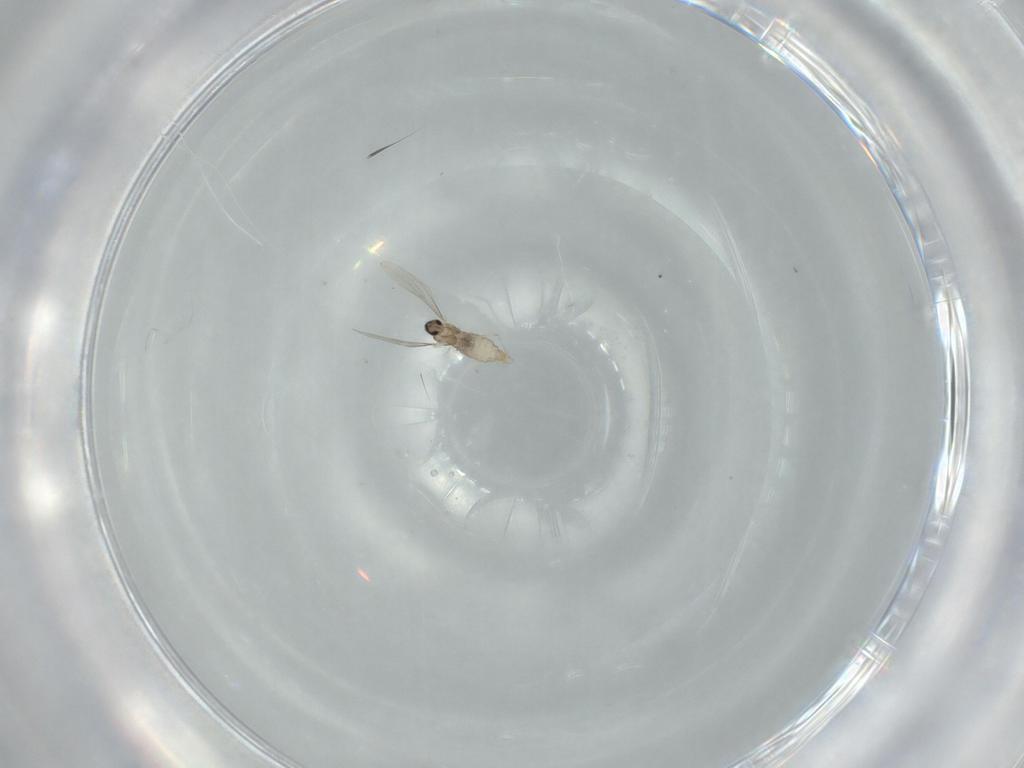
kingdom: Animalia
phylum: Arthropoda
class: Insecta
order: Diptera
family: Cecidomyiidae
